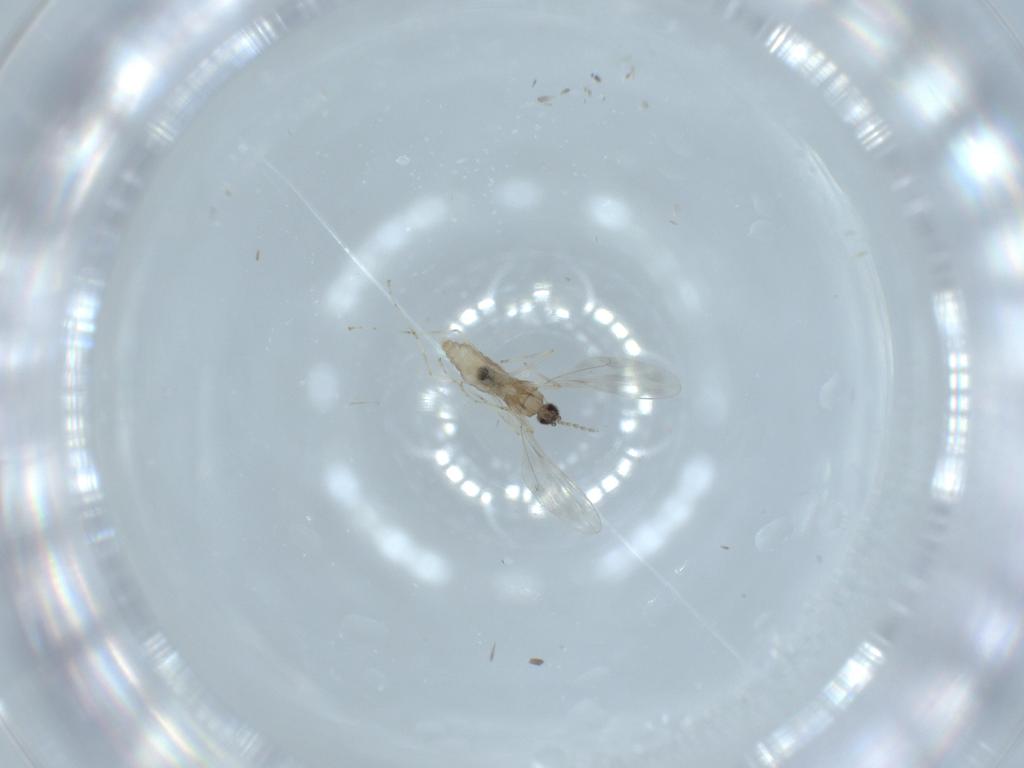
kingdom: Animalia
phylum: Arthropoda
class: Insecta
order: Diptera
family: Cecidomyiidae
